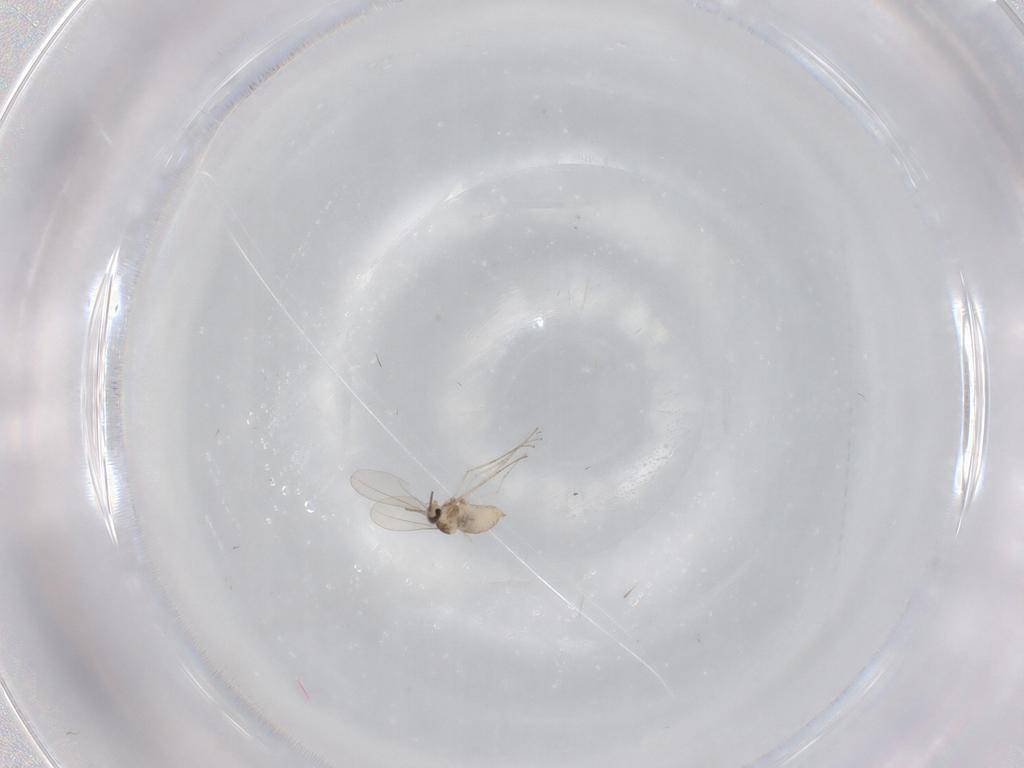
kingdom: Animalia
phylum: Arthropoda
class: Insecta
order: Diptera
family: Cecidomyiidae
